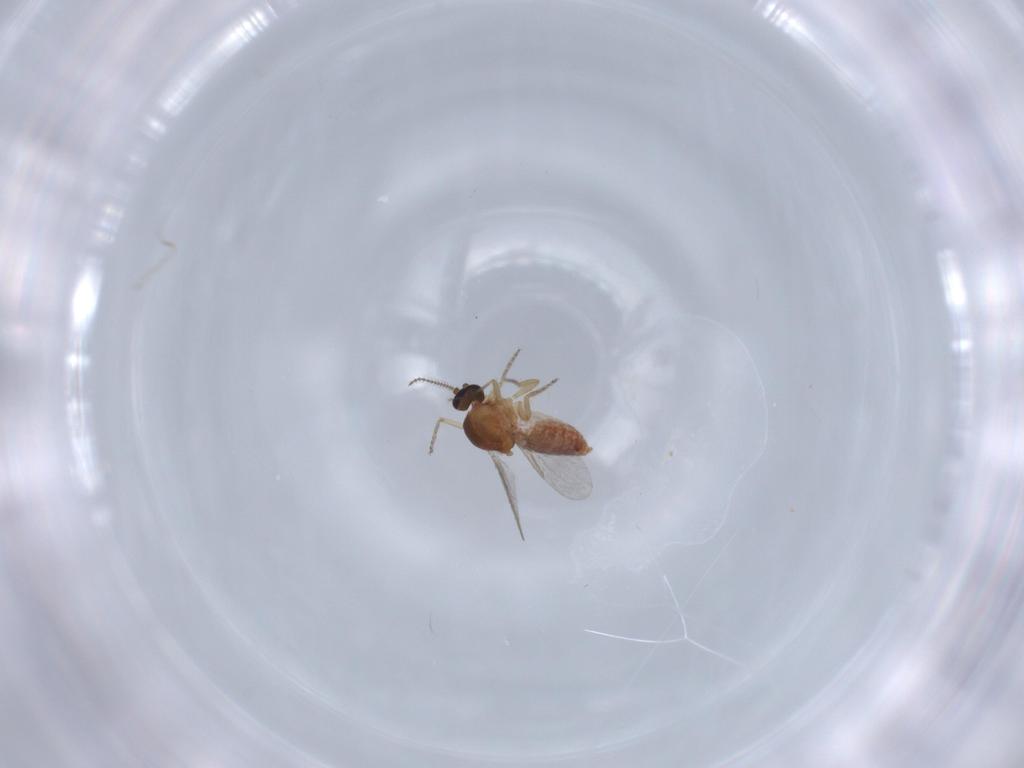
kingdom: Animalia
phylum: Arthropoda
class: Insecta
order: Diptera
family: Ceratopogonidae
